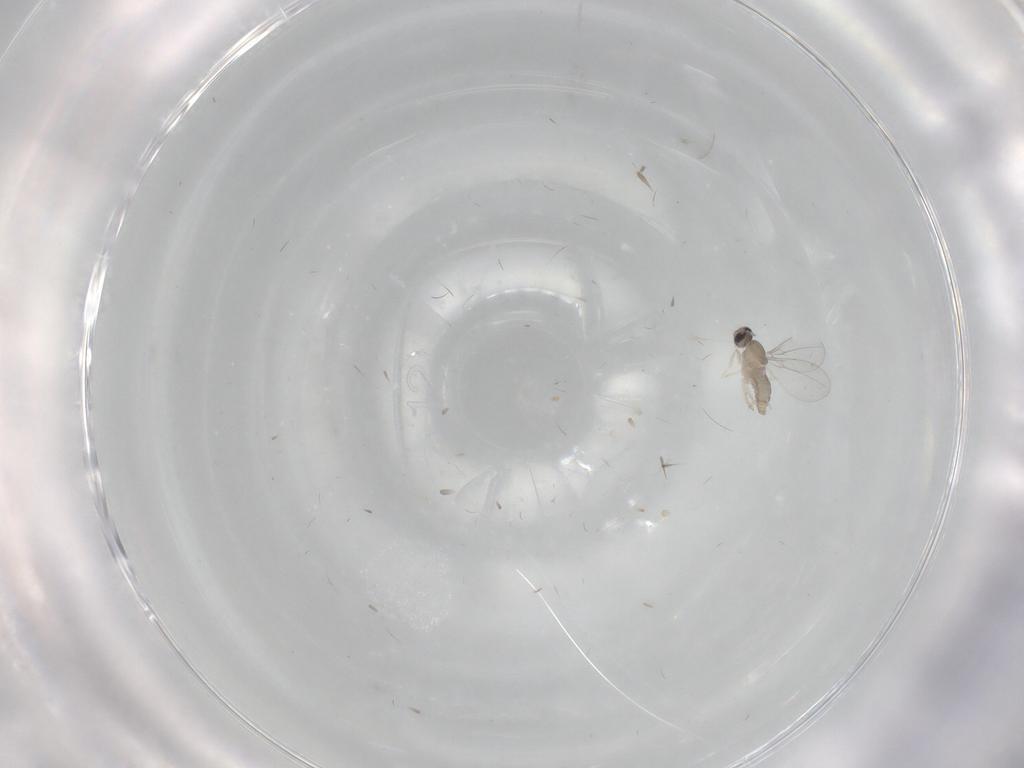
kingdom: Animalia
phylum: Arthropoda
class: Insecta
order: Diptera
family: Cecidomyiidae
